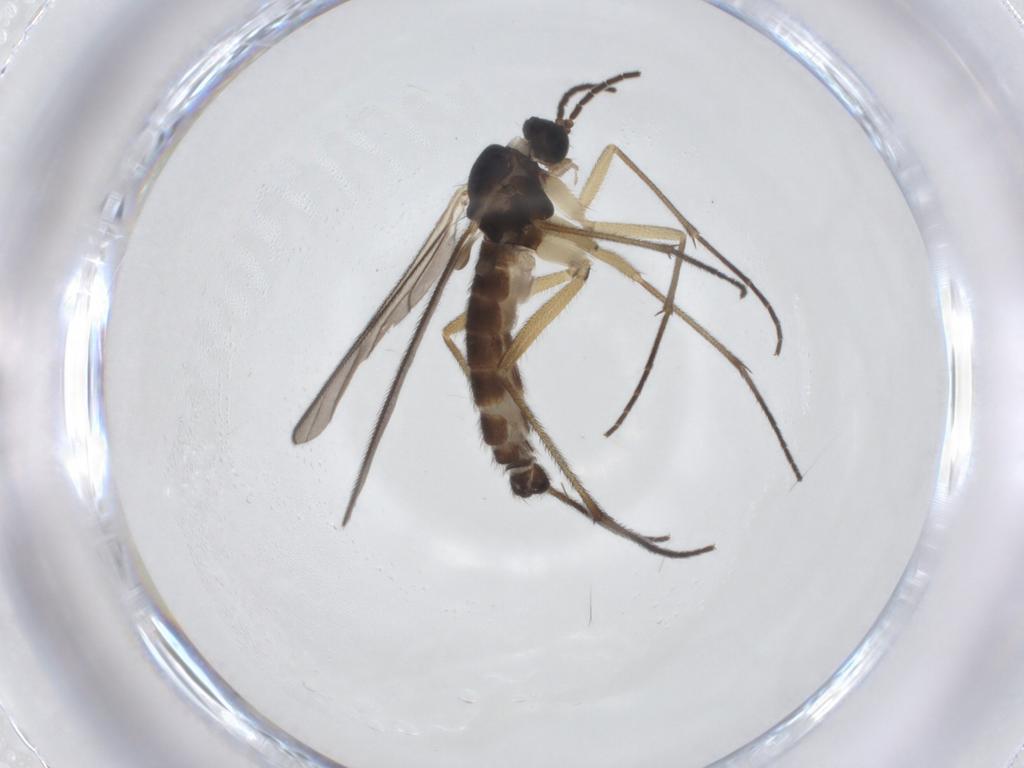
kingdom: Animalia
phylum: Arthropoda
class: Insecta
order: Diptera
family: Sciaridae
